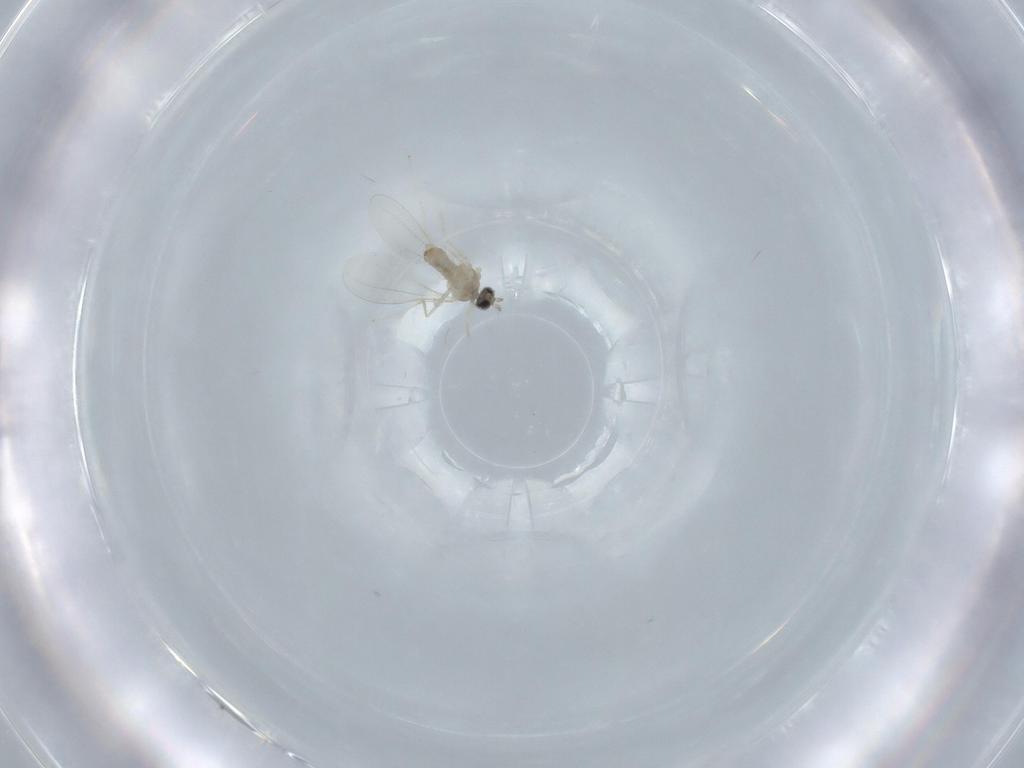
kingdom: Animalia
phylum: Arthropoda
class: Insecta
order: Diptera
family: Cecidomyiidae
